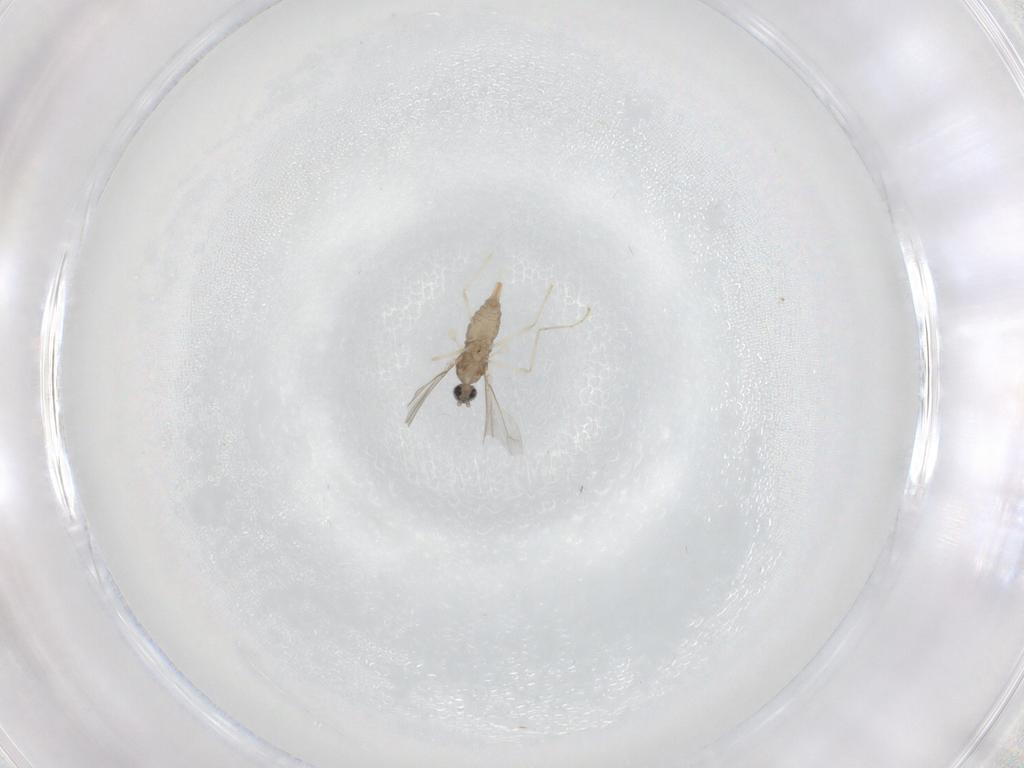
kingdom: Animalia
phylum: Arthropoda
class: Insecta
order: Diptera
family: Cecidomyiidae
